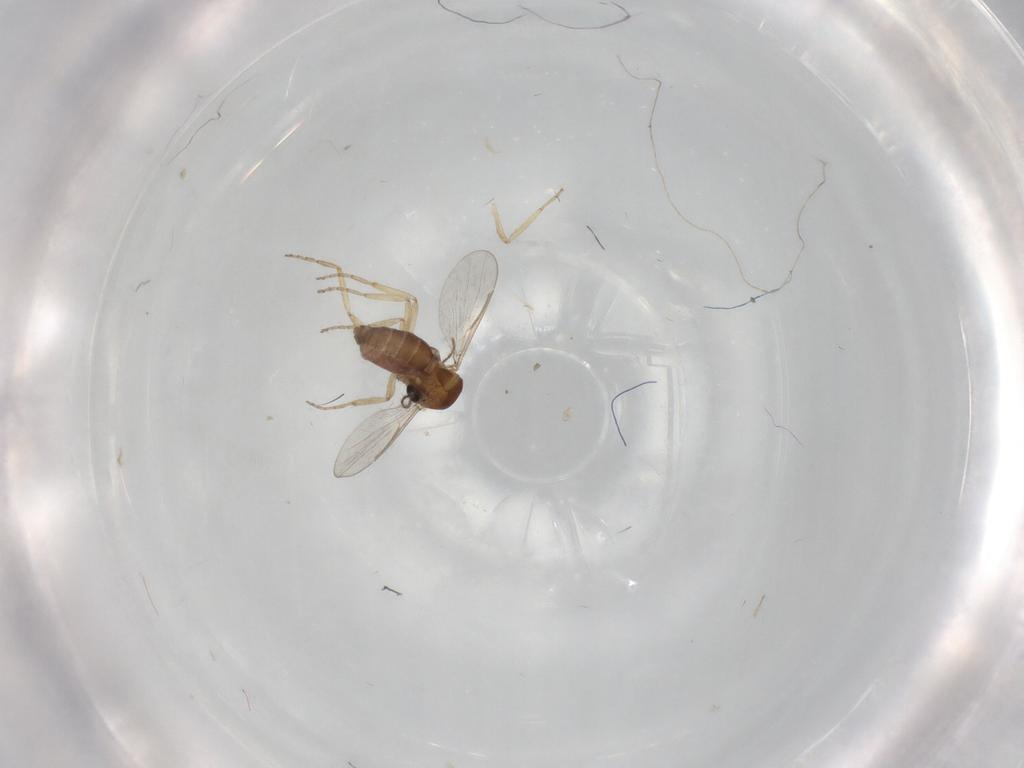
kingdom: Animalia
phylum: Arthropoda
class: Insecta
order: Diptera
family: Ceratopogonidae
